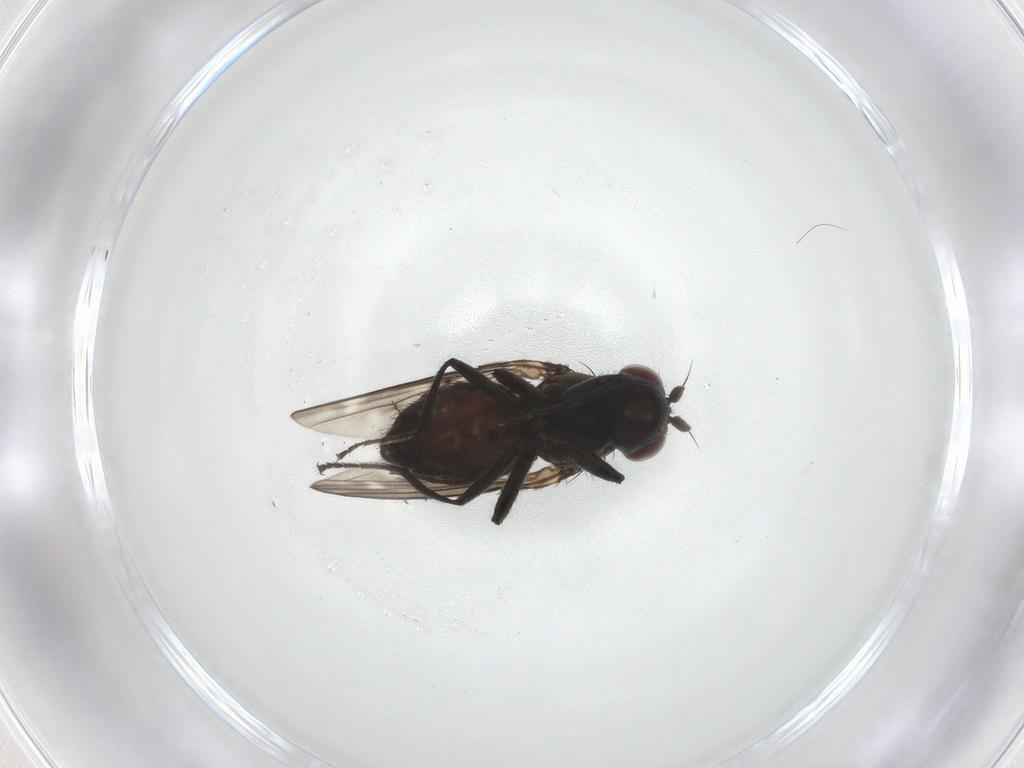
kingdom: Animalia
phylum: Arthropoda
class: Insecta
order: Diptera
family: Ephydridae
